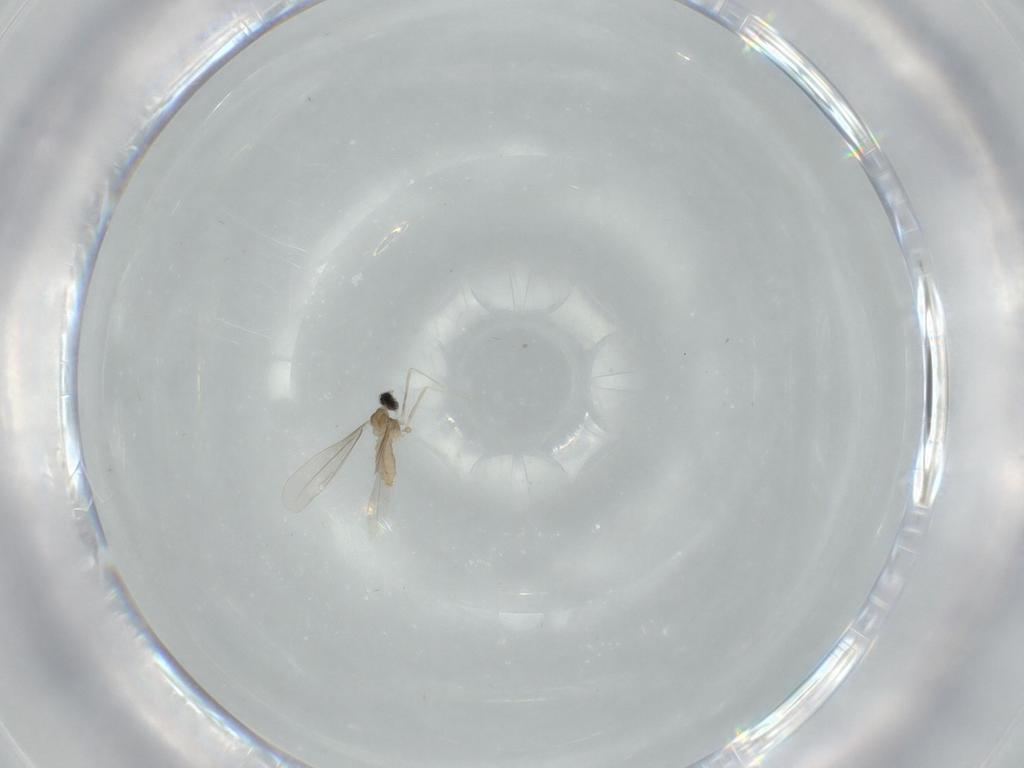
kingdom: Animalia
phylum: Arthropoda
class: Insecta
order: Diptera
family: Cecidomyiidae
